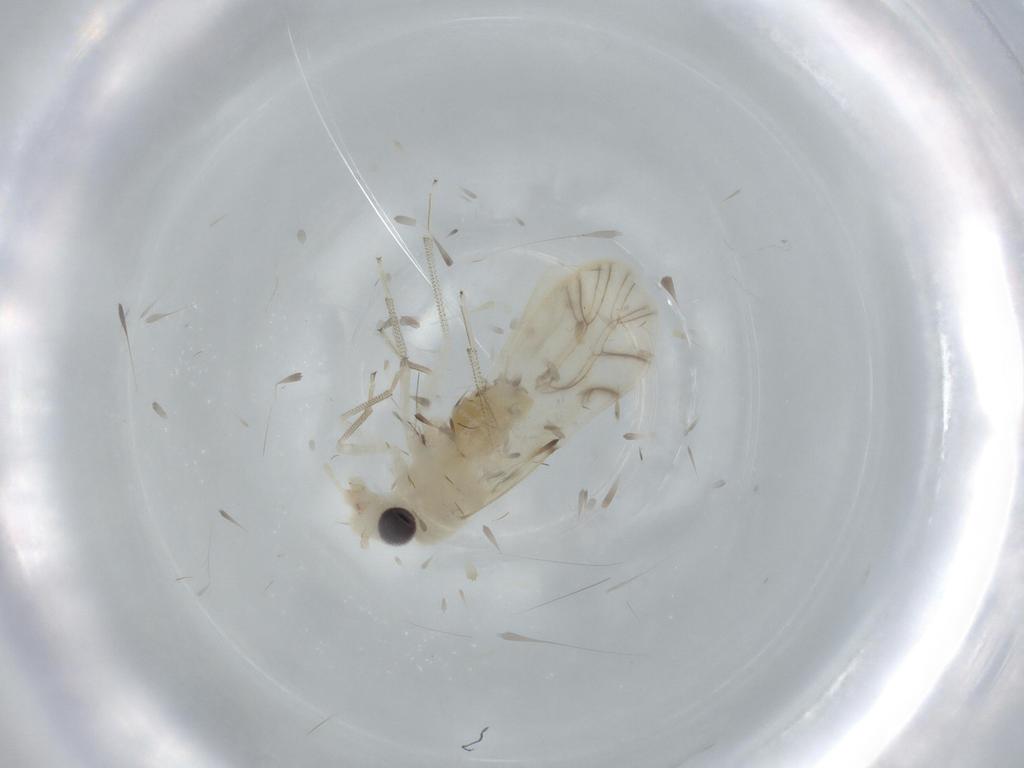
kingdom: Animalia
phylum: Arthropoda
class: Insecta
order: Psocodea
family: Caeciliusidae
